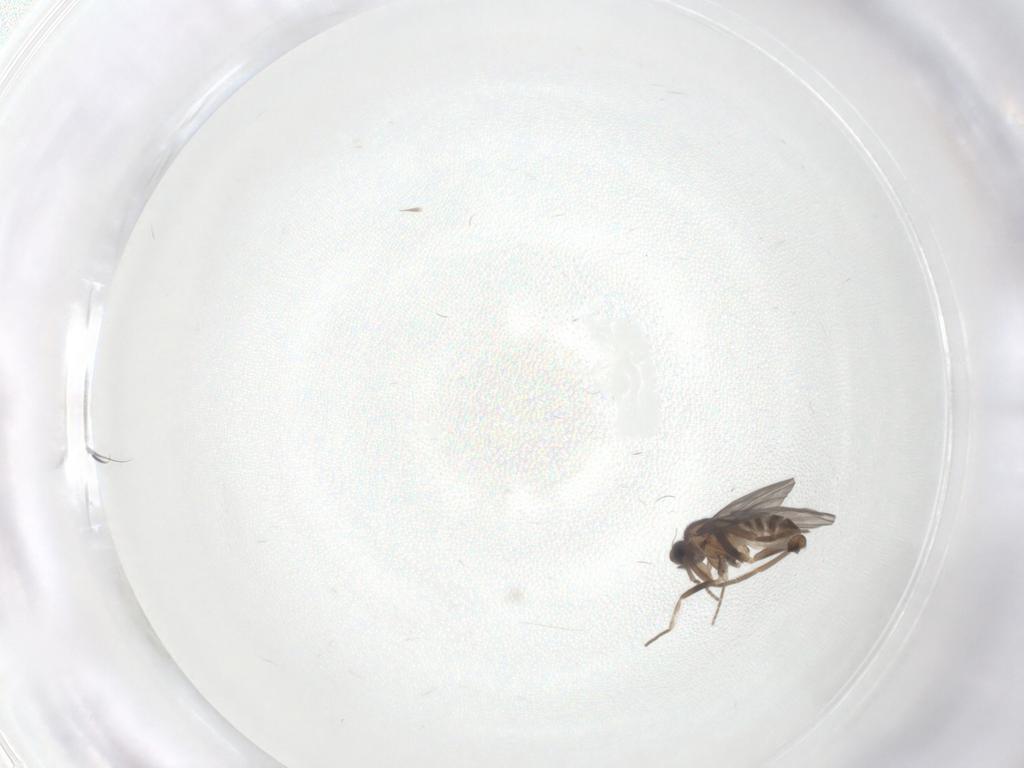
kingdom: Animalia
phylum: Arthropoda
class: Insecta
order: Diptera
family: Phoridae
